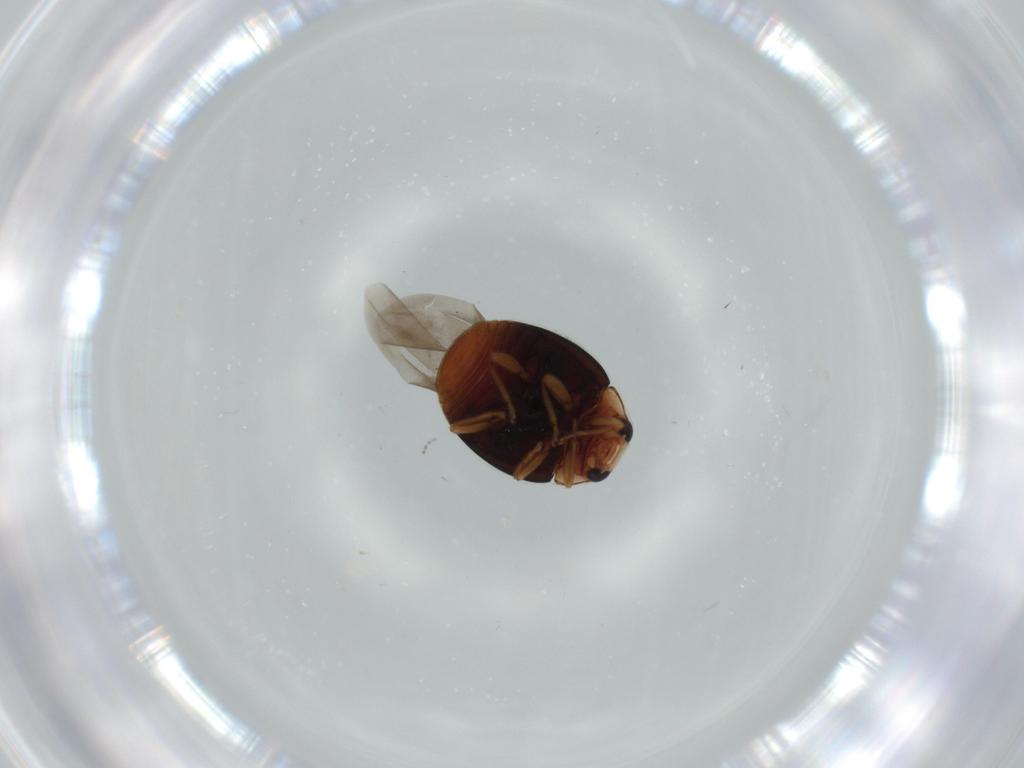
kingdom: Animalia
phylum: Arthropoda
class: Insecta
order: Coleoptera
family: Coccinellidae
